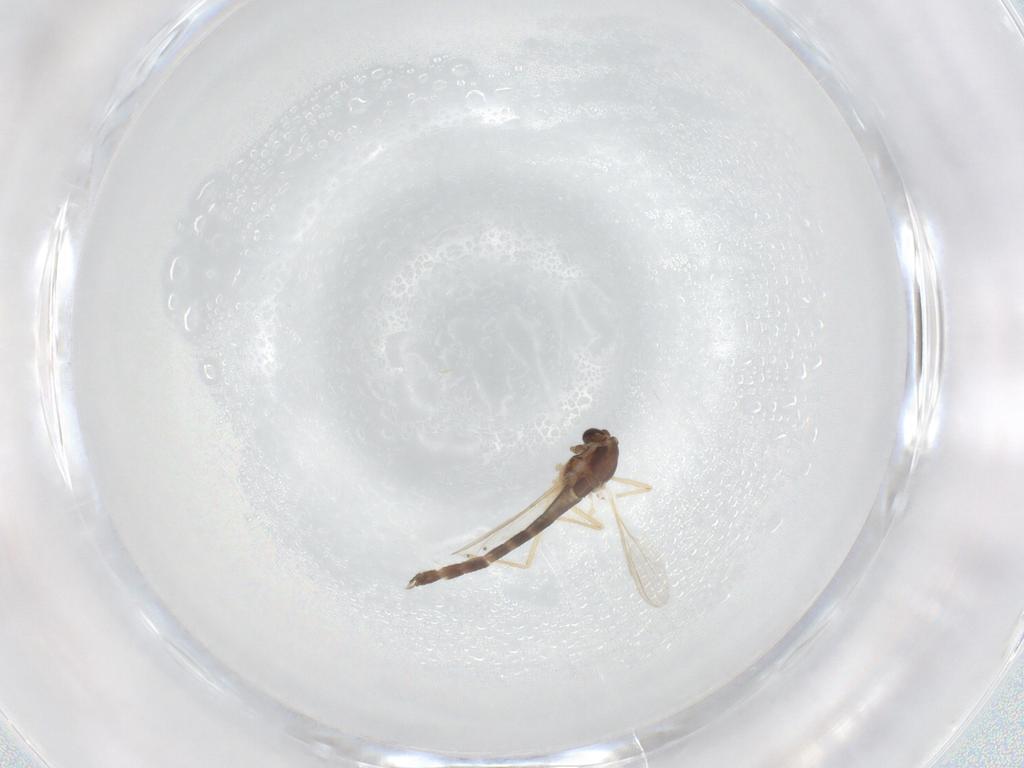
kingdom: Animalia
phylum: Arthropoda
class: Insecta
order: Diptera
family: Chironomidae
